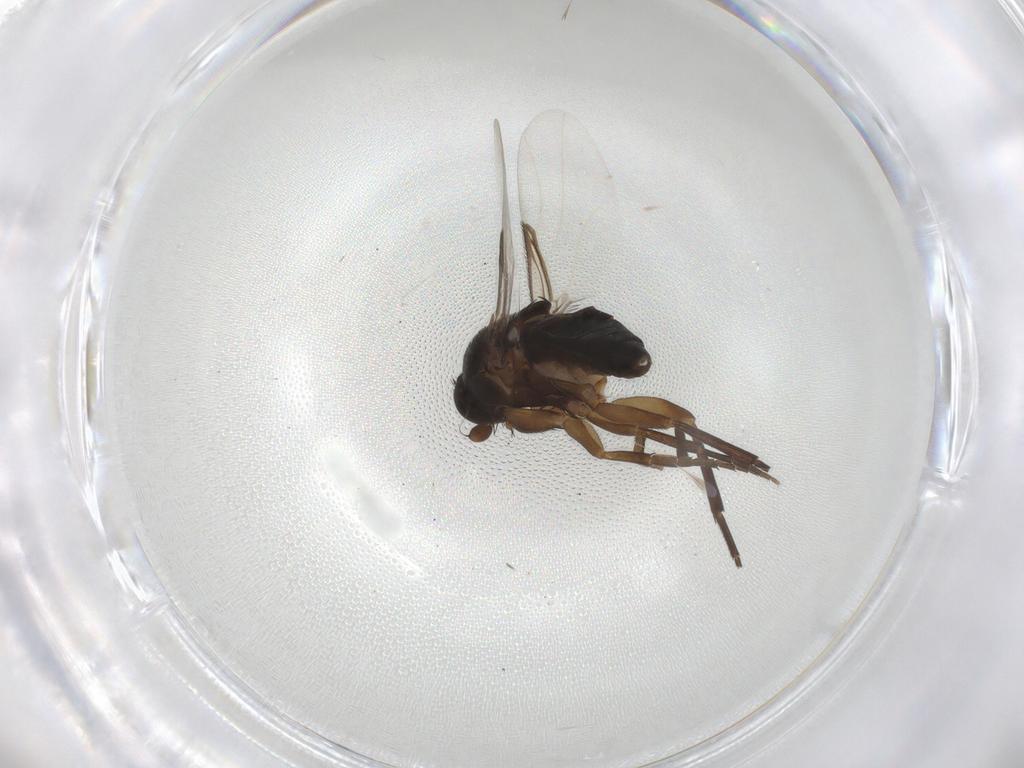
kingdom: Animalia
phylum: Arthropoda
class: Insecta
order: Diptera
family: Phoridae
